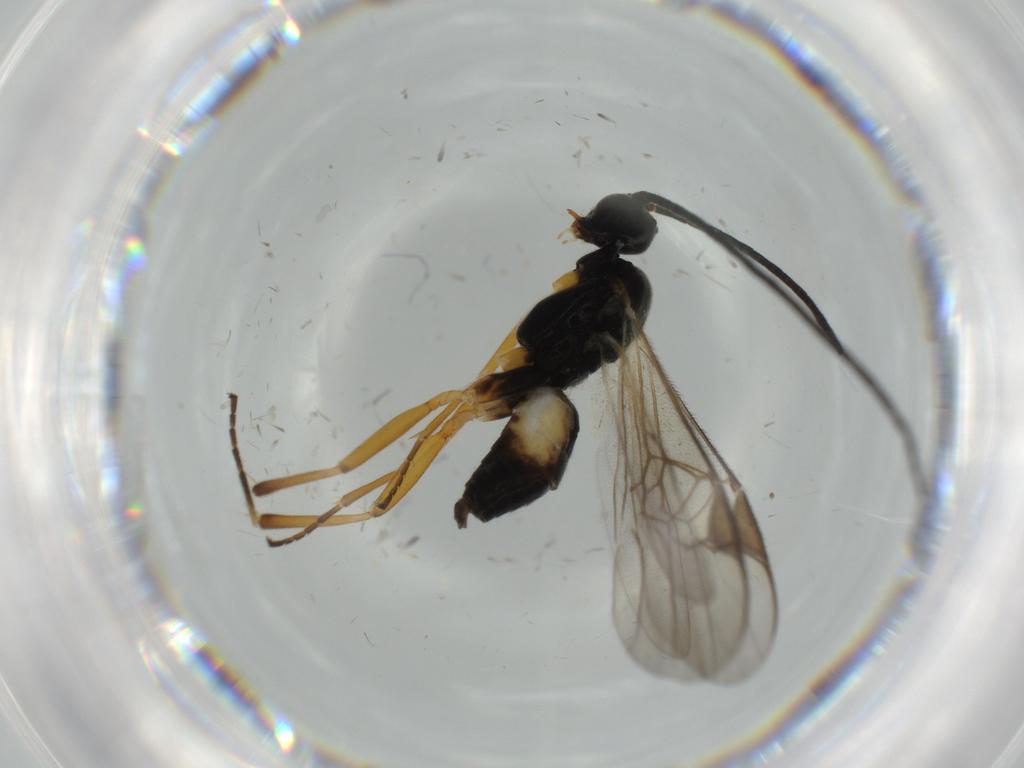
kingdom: Animalia
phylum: Arthropoda
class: Insecta
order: Hymenoptera
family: Braconidae
